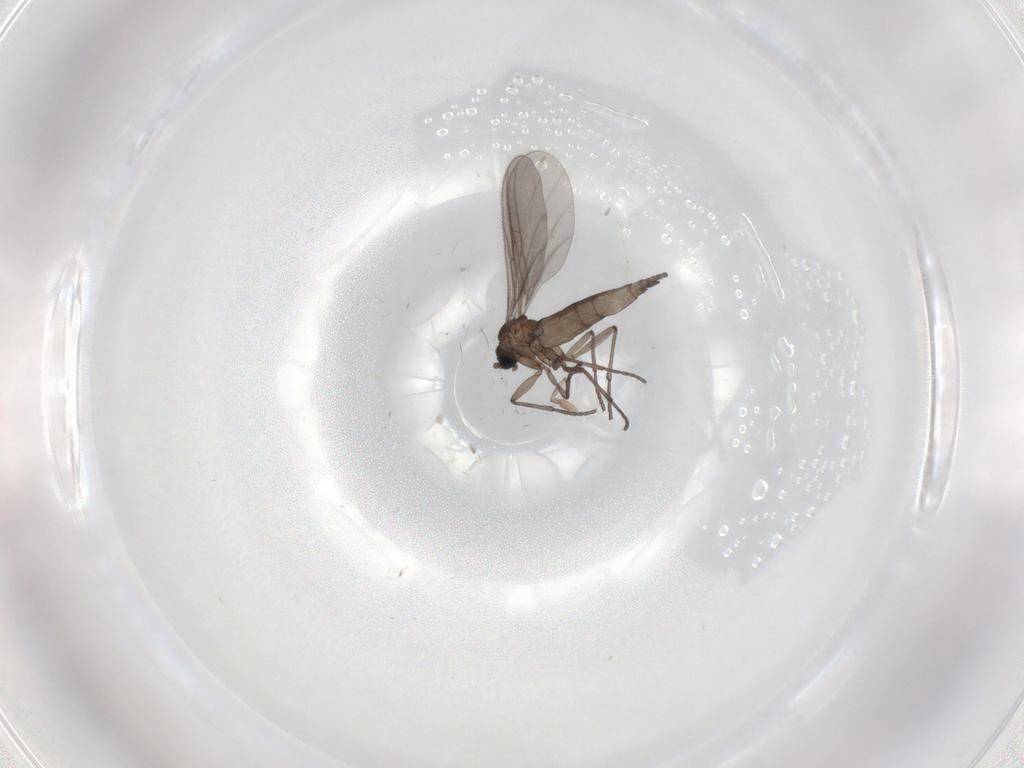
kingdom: Animalia
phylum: Arthropoda
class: Insecta
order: Diptera
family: Sciaridae
